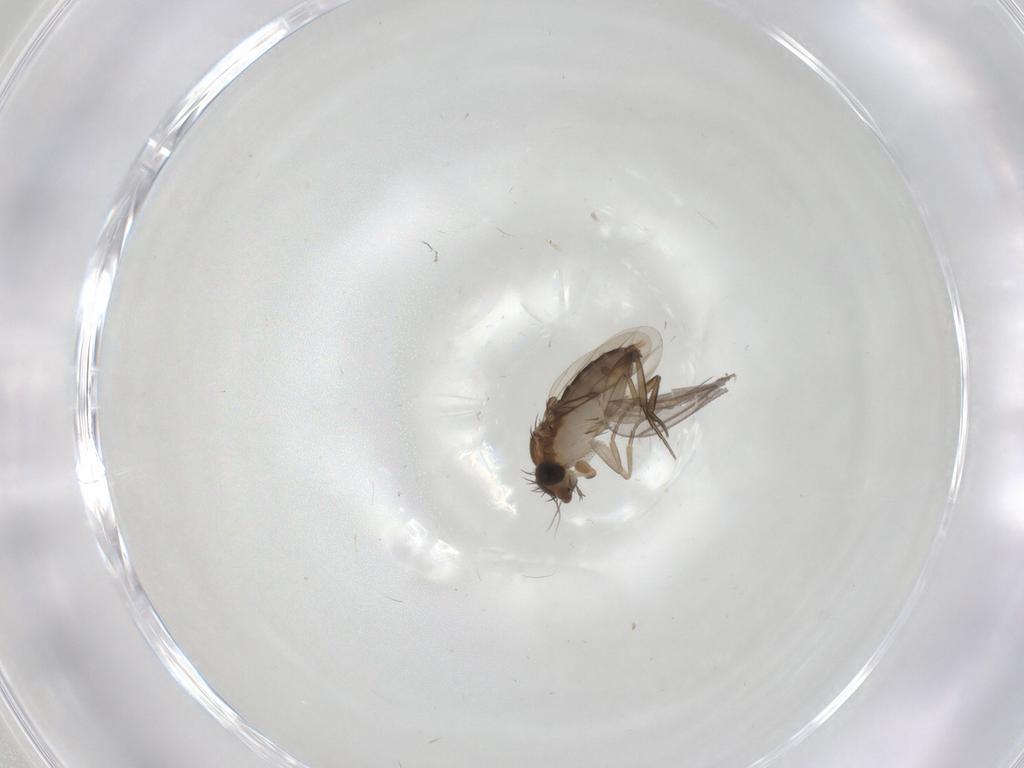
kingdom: Animalia
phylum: Arthropoda
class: Insecta
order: Diptera
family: Phoridae
